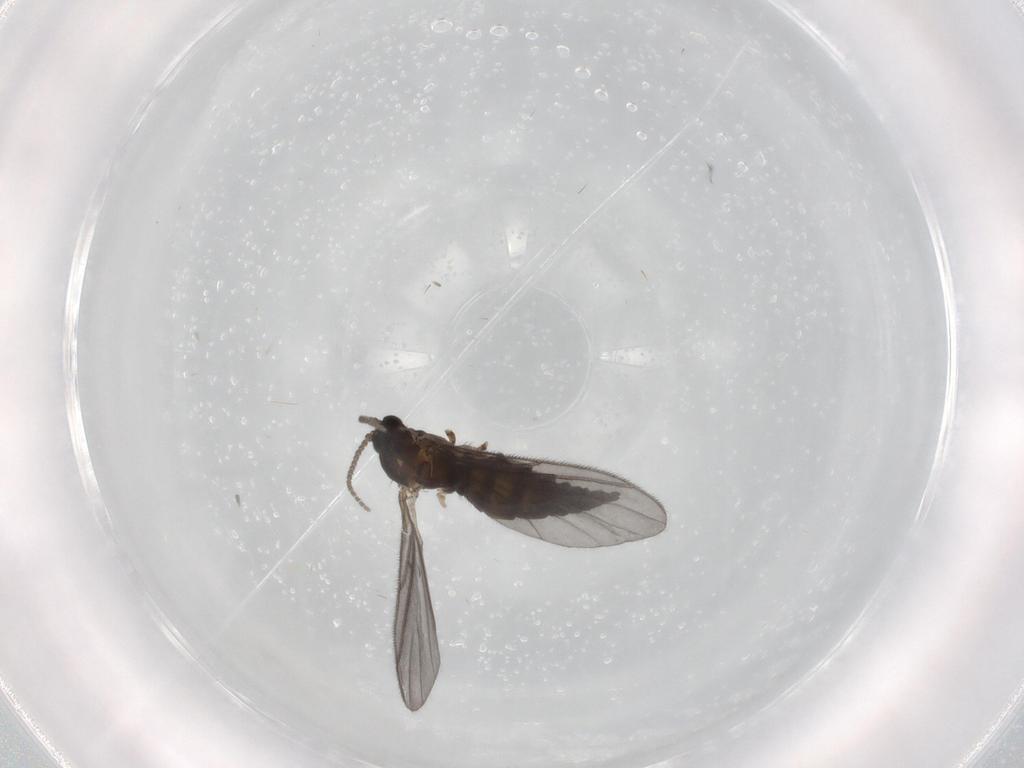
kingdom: Animalia
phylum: Arthropoda
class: Insecta
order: Diptera
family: Sciaridae
